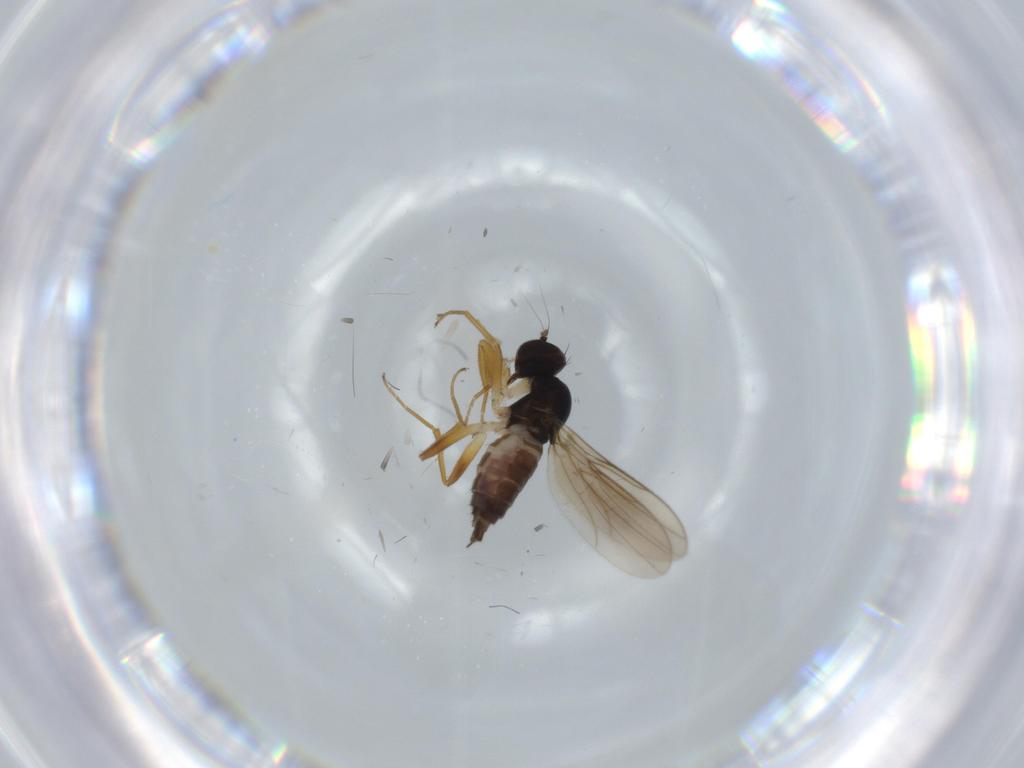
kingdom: Animalia
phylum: Arthropoda
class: Insecta
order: Diptera
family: Hybotidae
